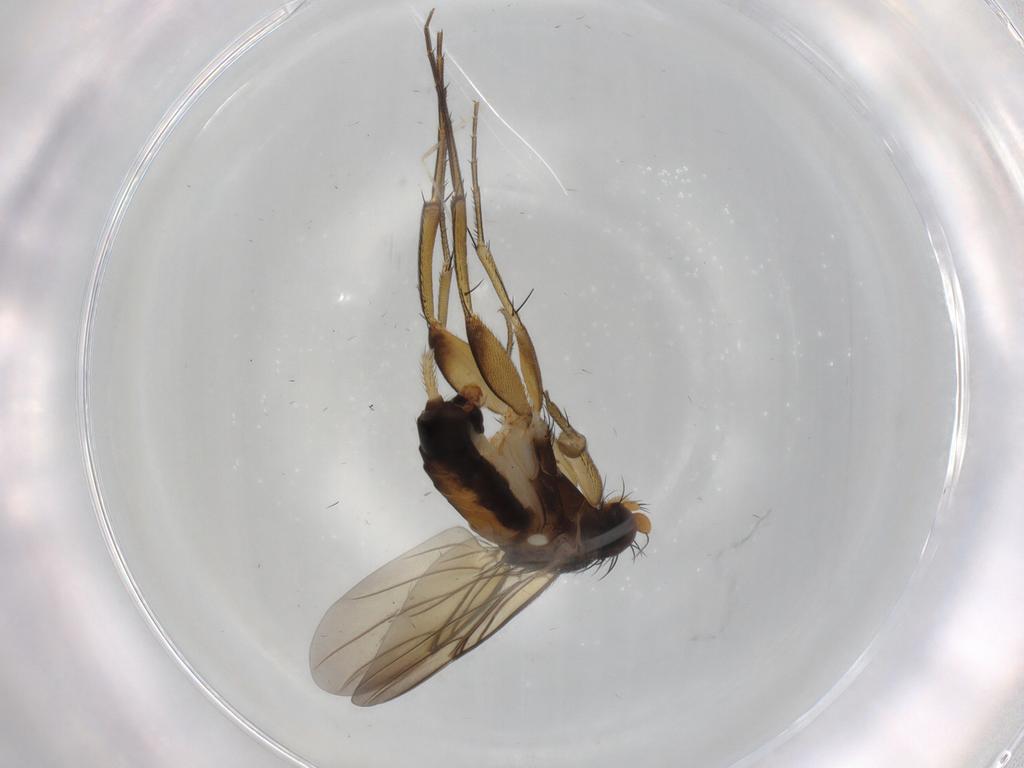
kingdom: Animalia
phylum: Arthropoda
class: Insecta
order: Diptera
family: Phoridae
